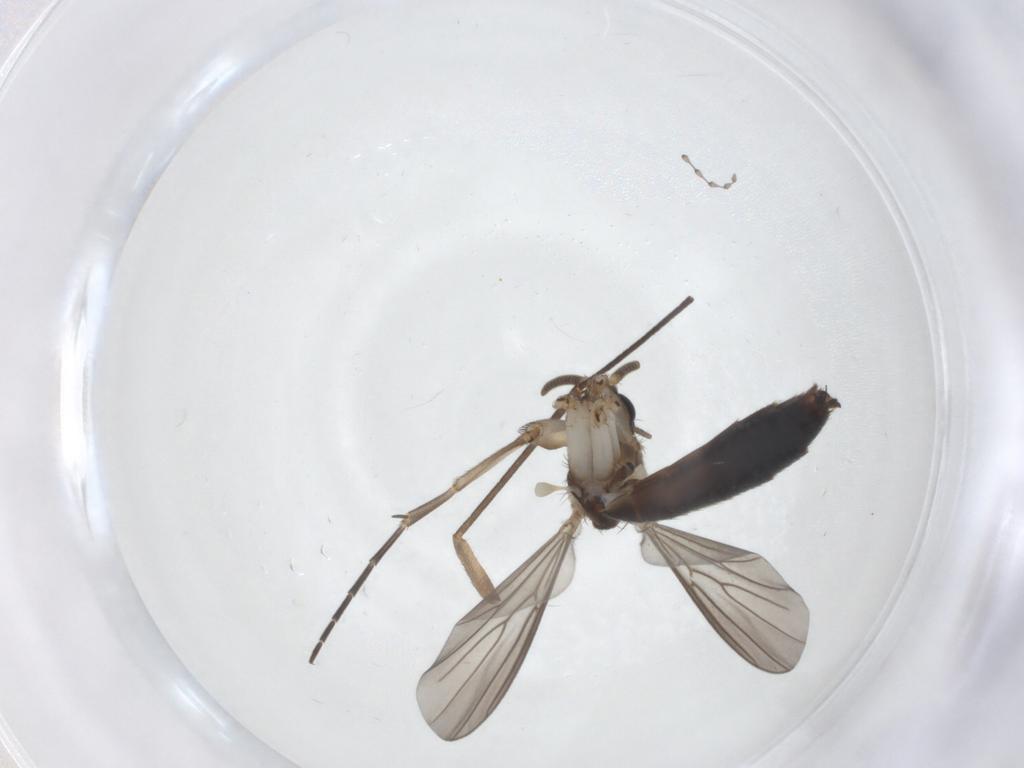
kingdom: Animalia
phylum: Arthropoda
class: Insecta
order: Diptera
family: Mycetophilidae
